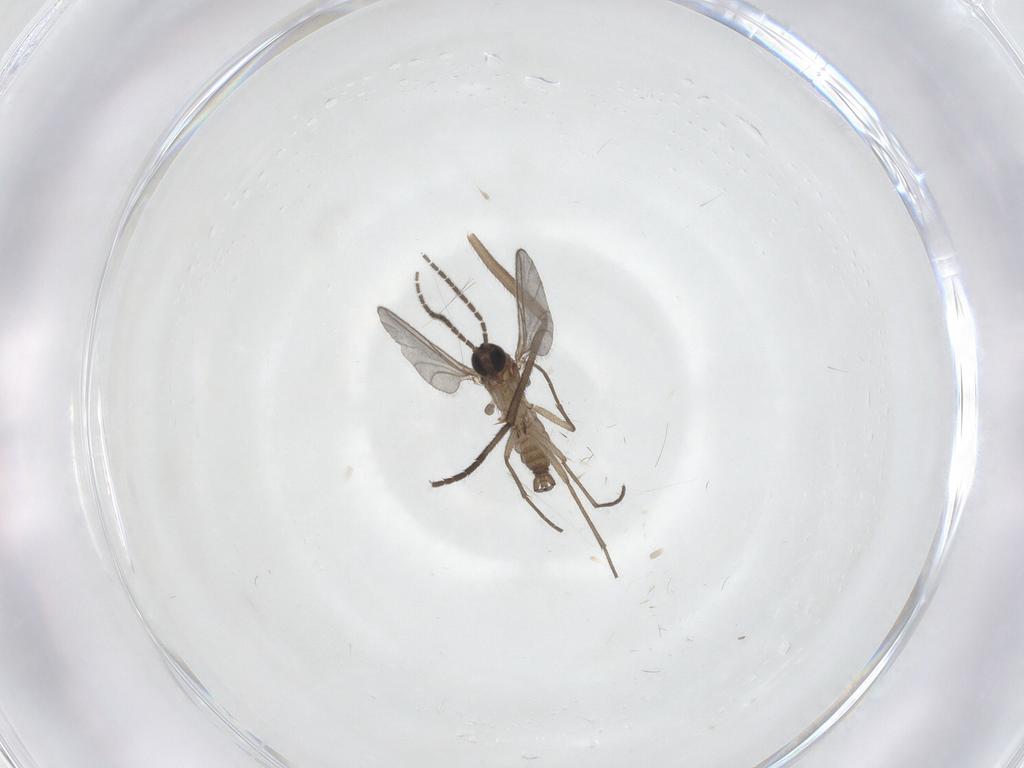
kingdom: Animalia
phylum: Arthropoda
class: Insecta
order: Diptera
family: Sciaridae
